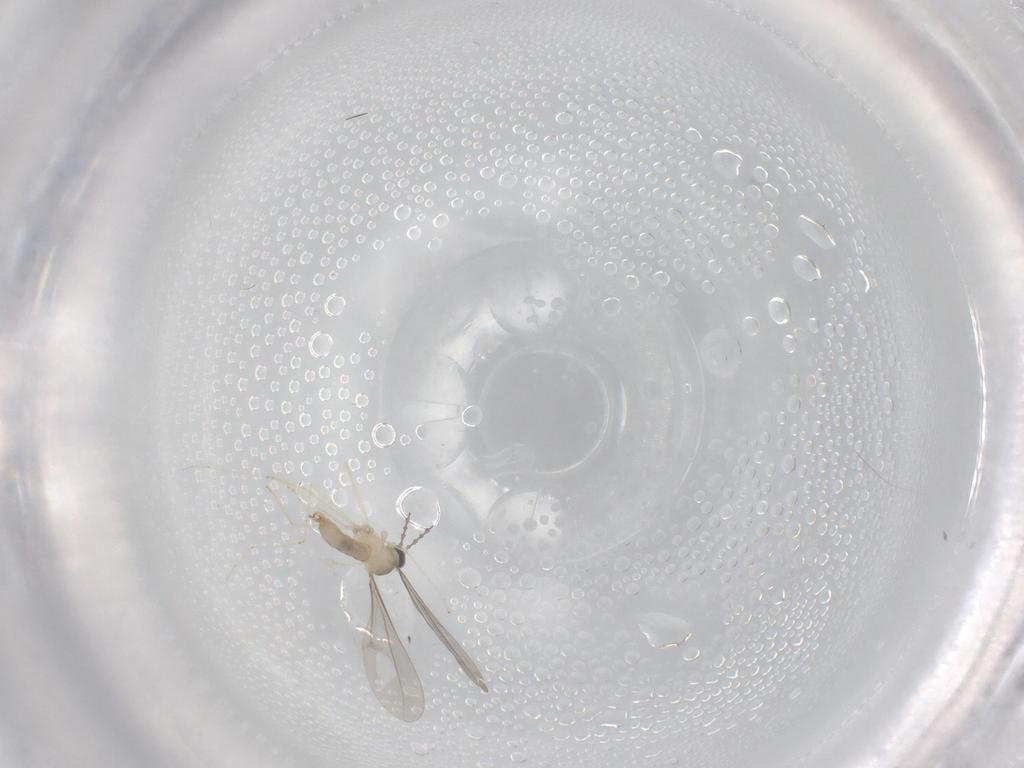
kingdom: Animalia
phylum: Arthropoda
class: Insecta
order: Diptera
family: Cecidomyiidae
